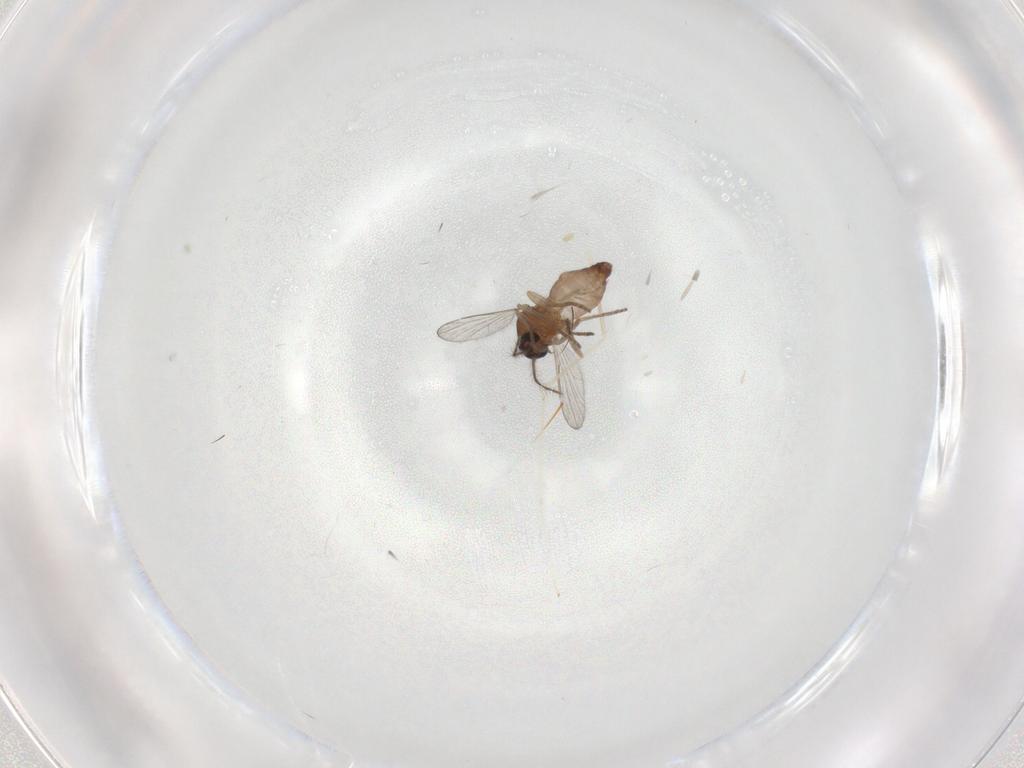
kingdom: Animalia
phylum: Arthropoda
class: Insecta
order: Diptera
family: Ceratopogonidae
